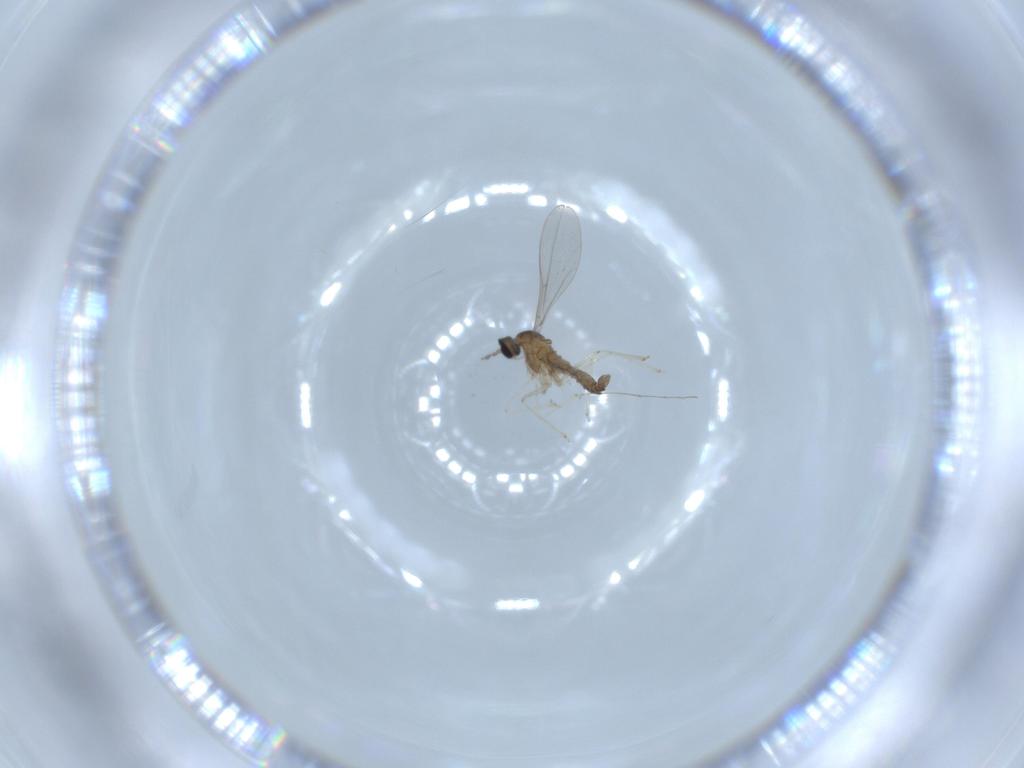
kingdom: Animalia
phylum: Arthropoda
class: Insecta
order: Diptera
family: Cecidomyiidae
